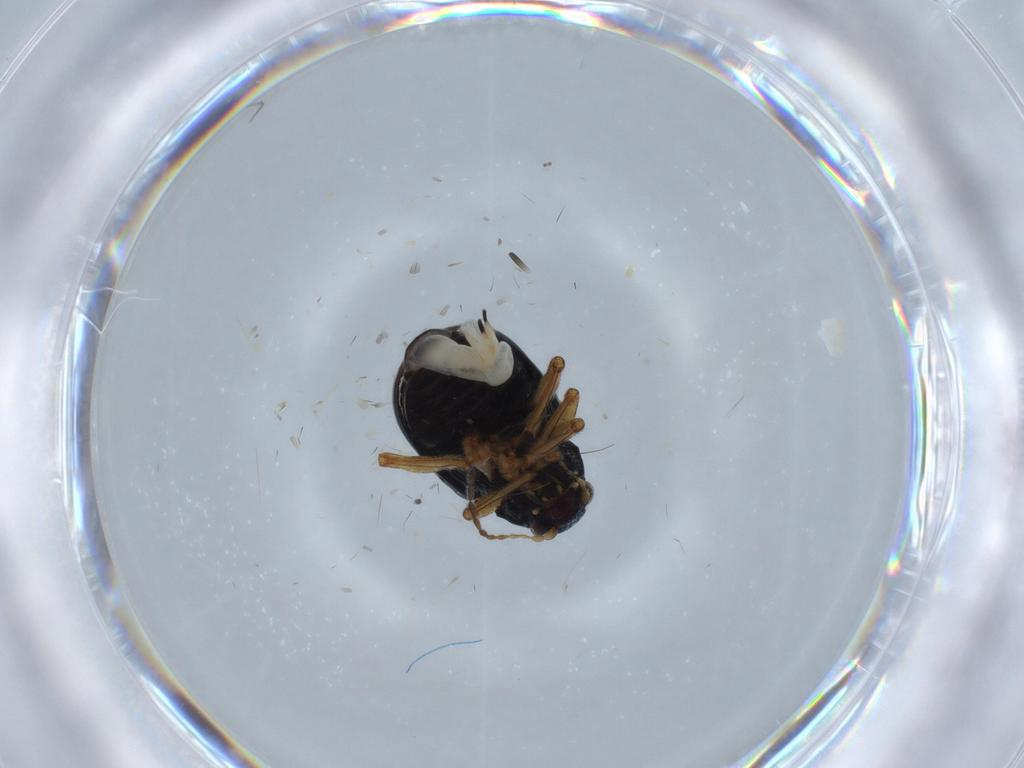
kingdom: Animalia
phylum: Arthropoda
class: Insecta
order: Coleoptera
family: Chrysomelidae
